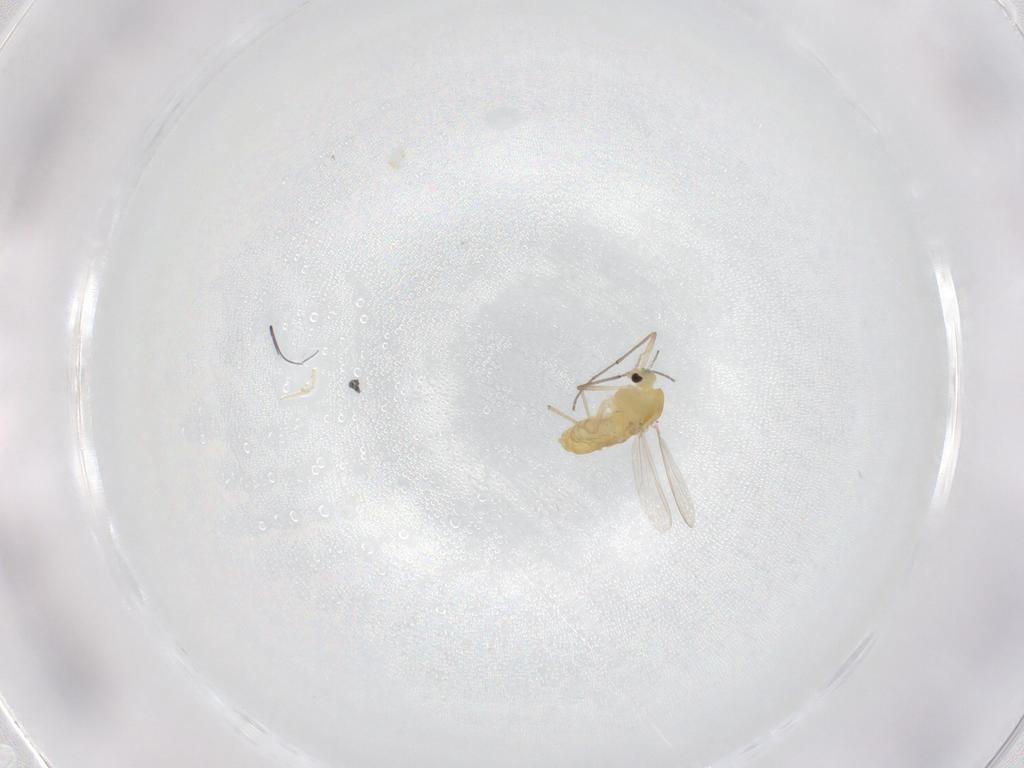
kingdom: Animalia
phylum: Arthropoda
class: Insecta
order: Diptera
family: Chironomidae
